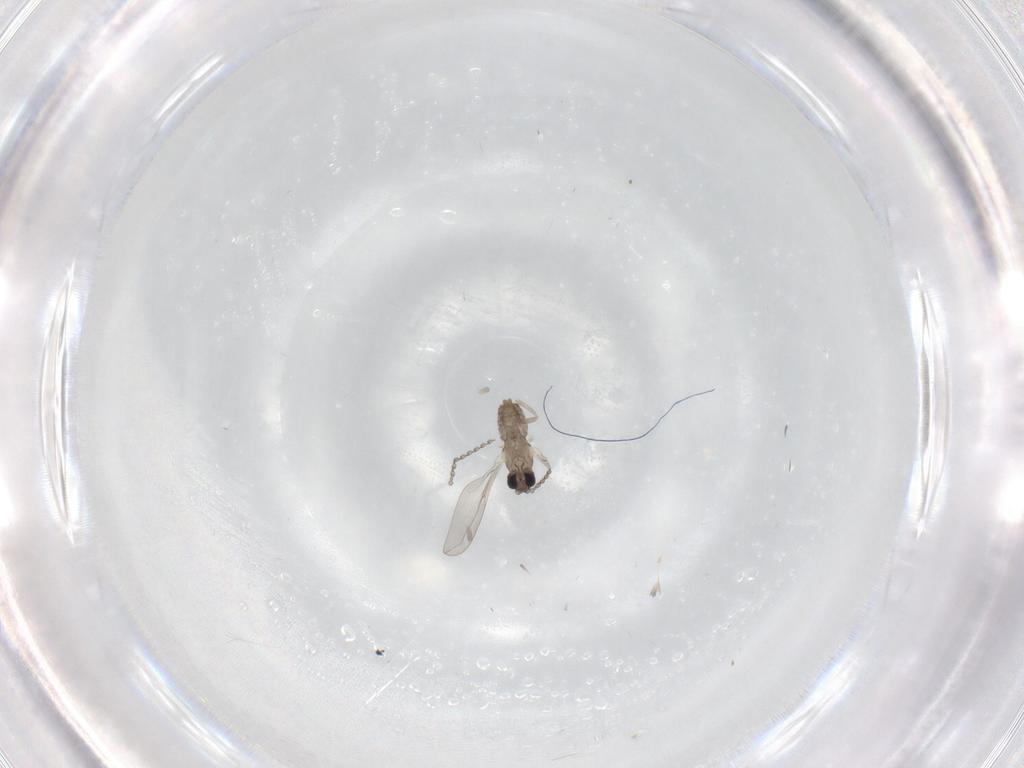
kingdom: Animalia
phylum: Arthropoda
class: Insecta
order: Diptera
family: Cecidomyiidae
